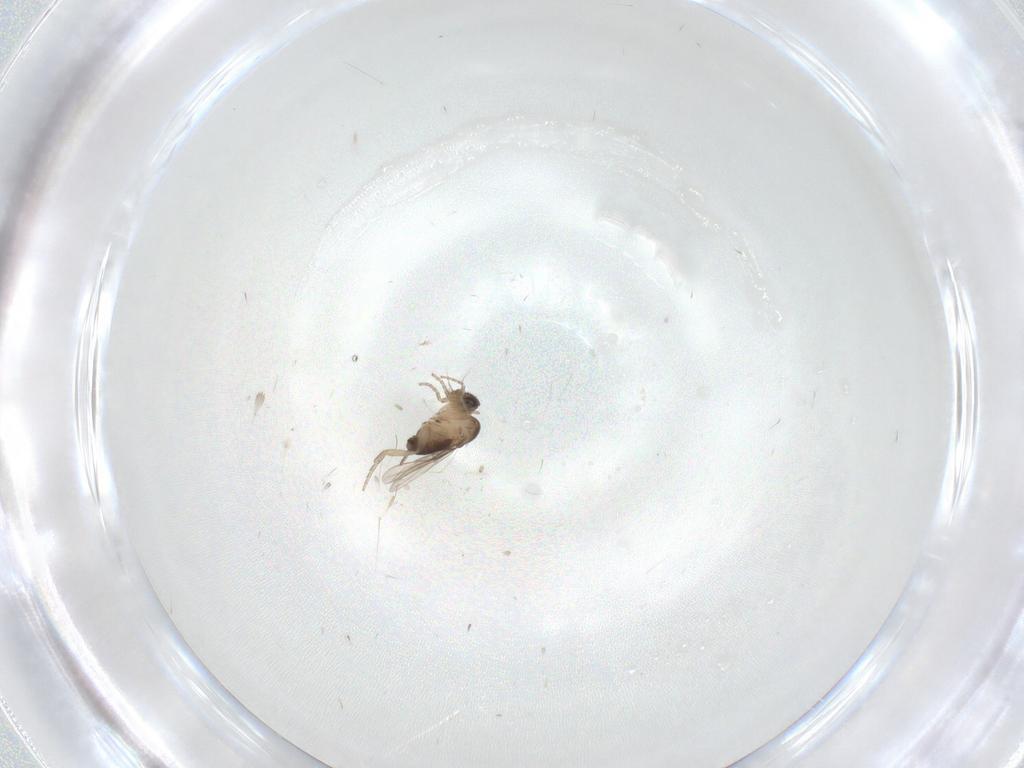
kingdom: Animalia
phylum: Arthropoda
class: Insecta
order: Diptera
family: Phoridae
